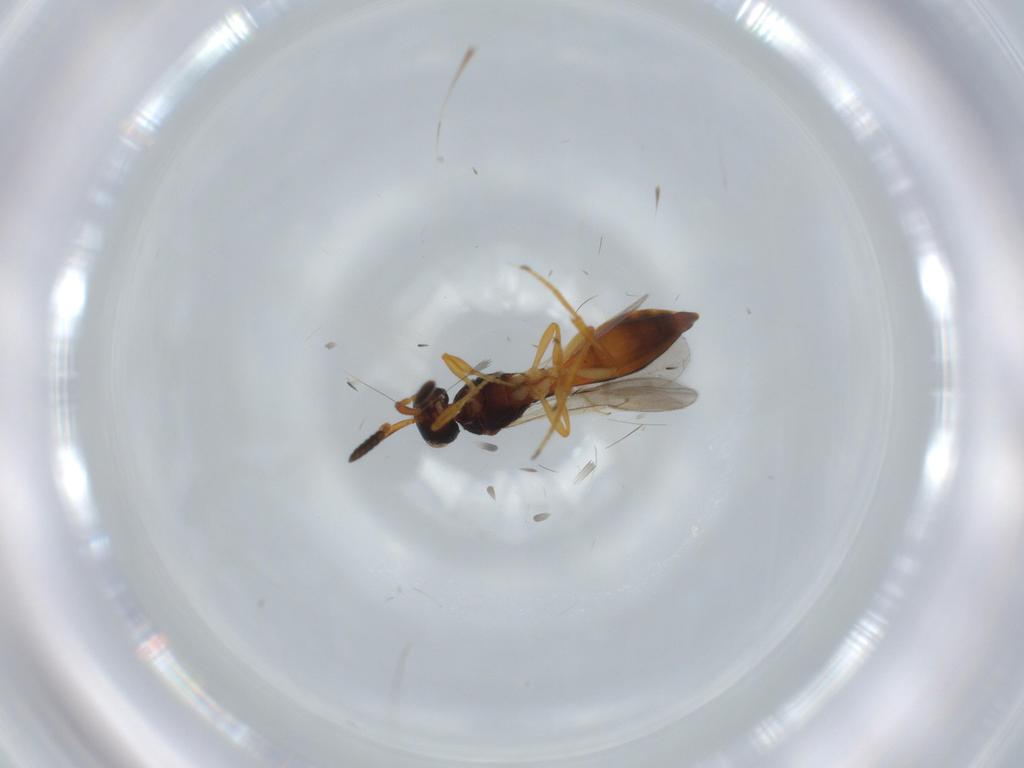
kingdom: Animalia
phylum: Arthropoda
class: Insecta
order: Hymenoptera
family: Scelionidae
